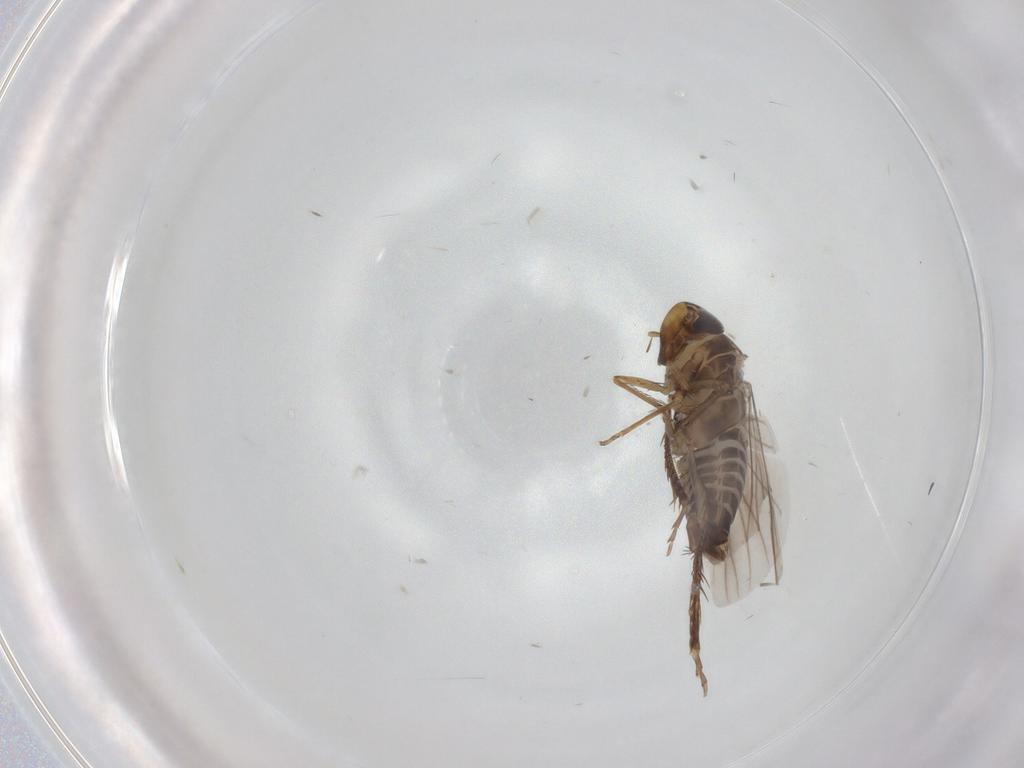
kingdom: Animalia
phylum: Arthropoda
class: Insecta
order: Hemiptera
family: Cicadellidae
